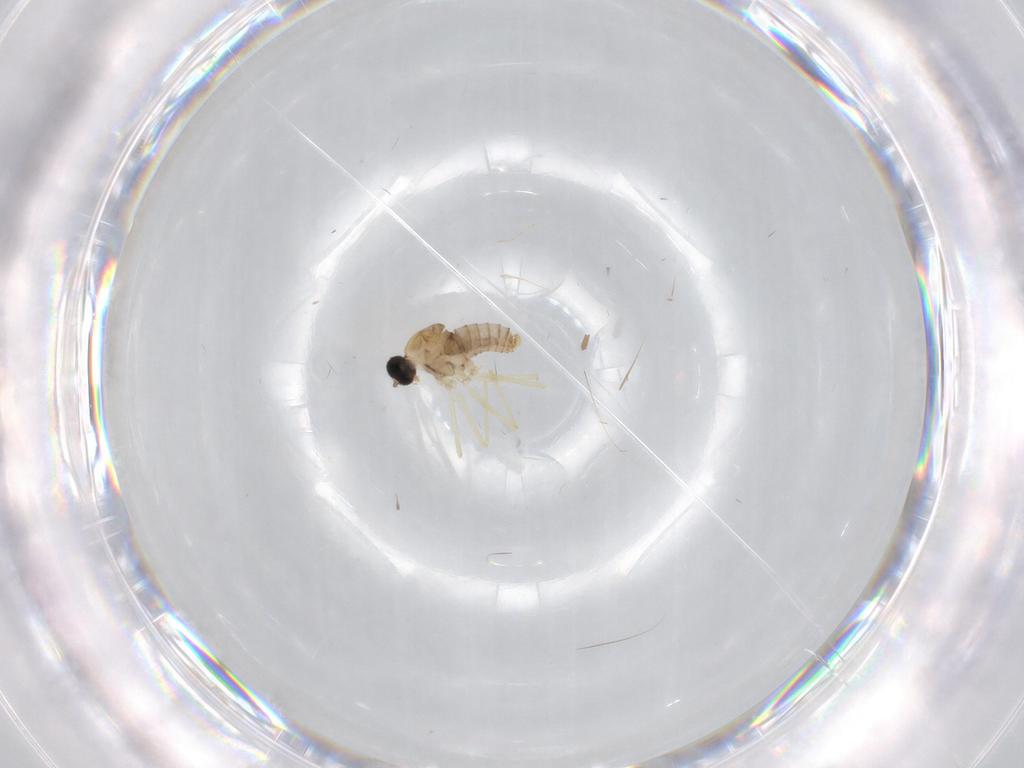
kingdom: Animalia
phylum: Arthropoda
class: Insecta
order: Diptera
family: Cecidomyiidae
